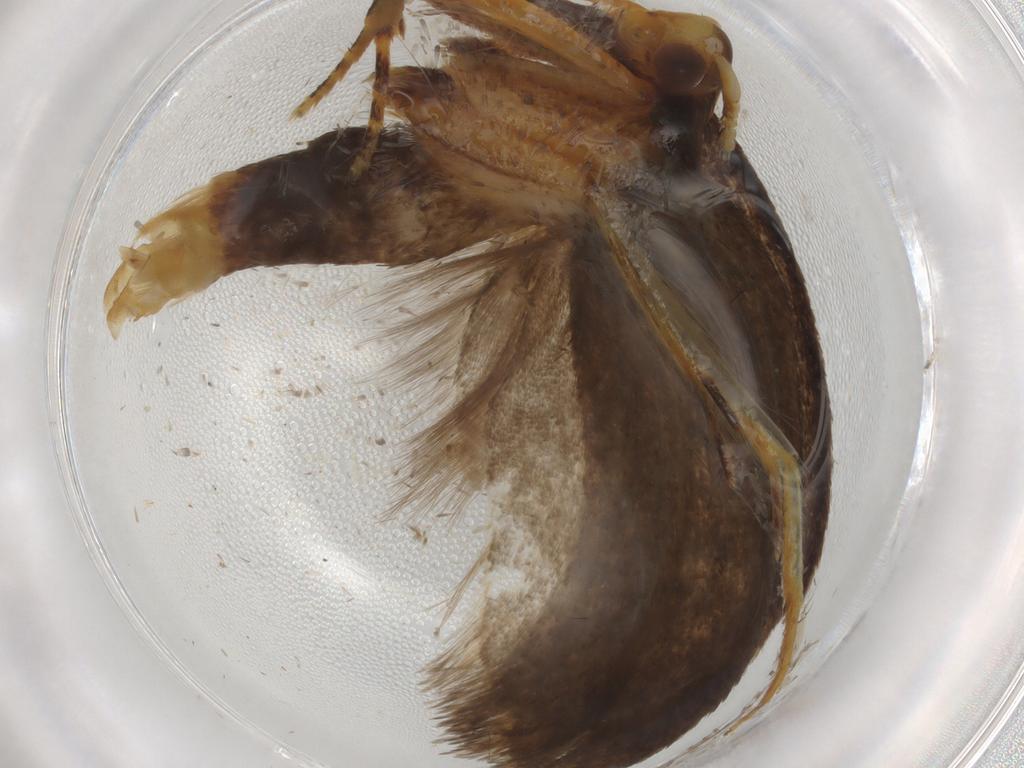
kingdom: Animalia
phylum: Arthropoda
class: Insecta
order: Lepidoptera
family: Lecithoceridae
